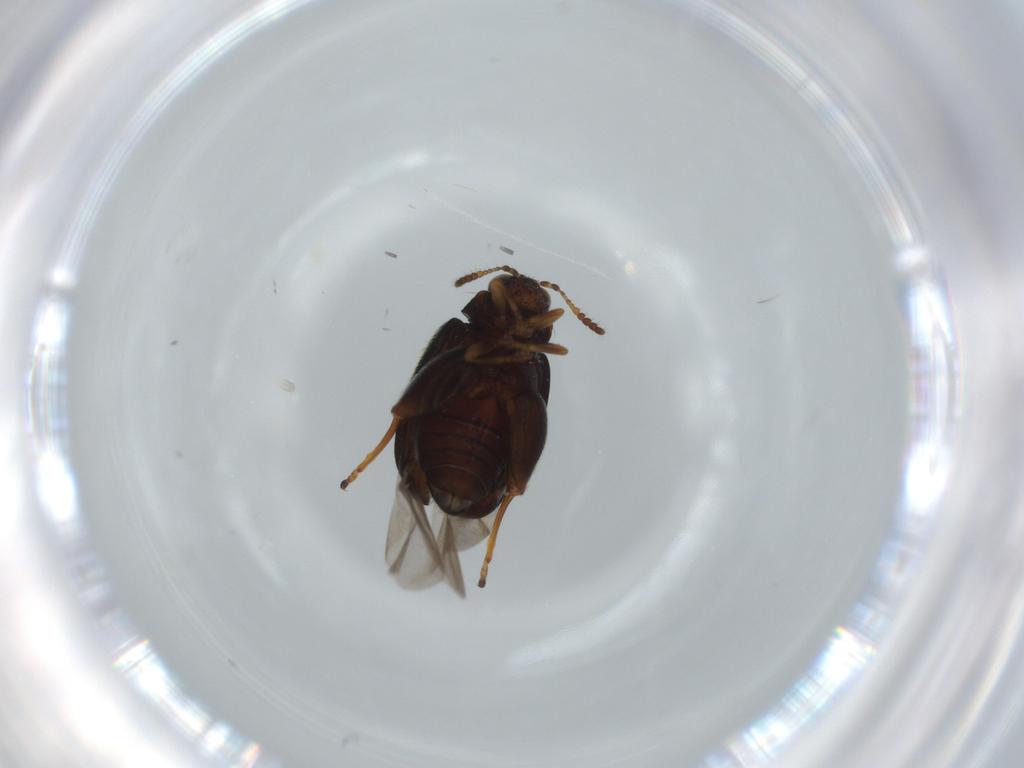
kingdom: Animalia
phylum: Arthropoda
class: Insecta
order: Coleoptera
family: Chrysomelidae
